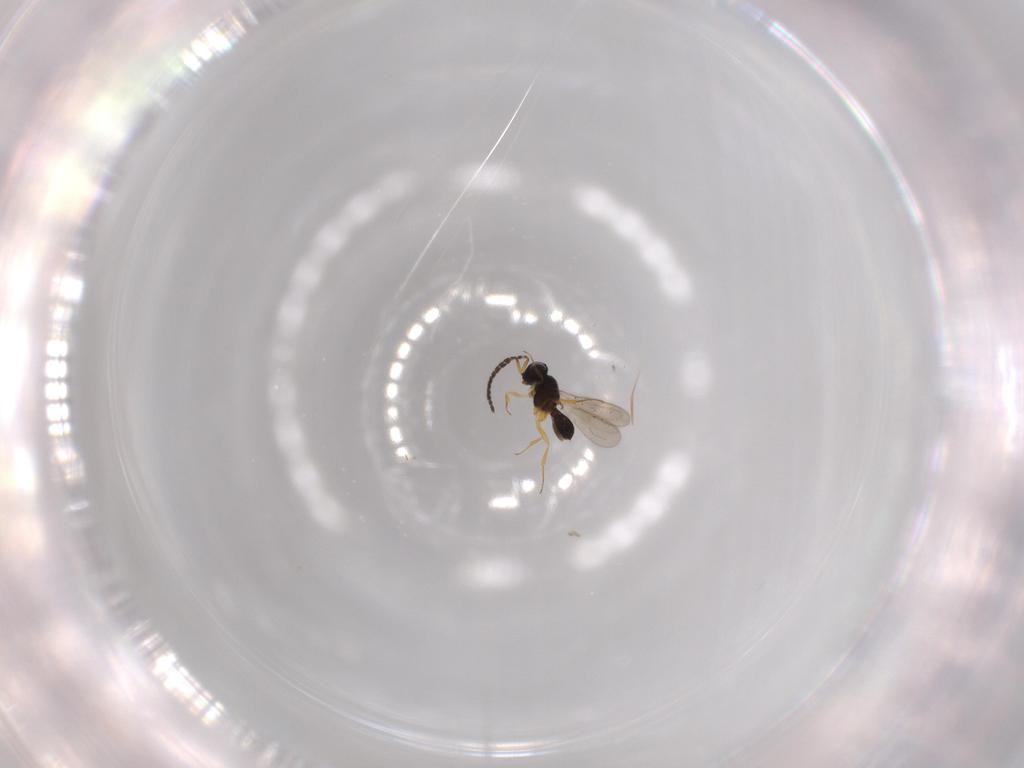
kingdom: Animalia
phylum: Arthropoda
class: Insecta
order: Hymenoptera
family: Scelionidae
